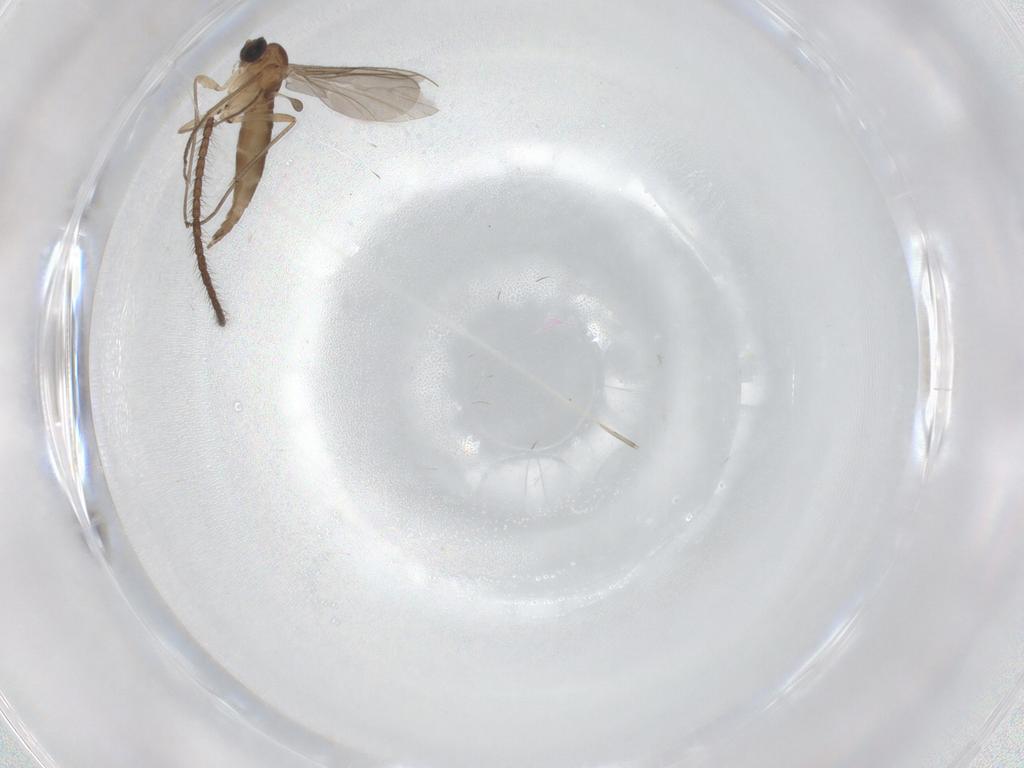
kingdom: Animalia
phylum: Arthropoda
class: Insecta
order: Diptera
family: Sciaridae
